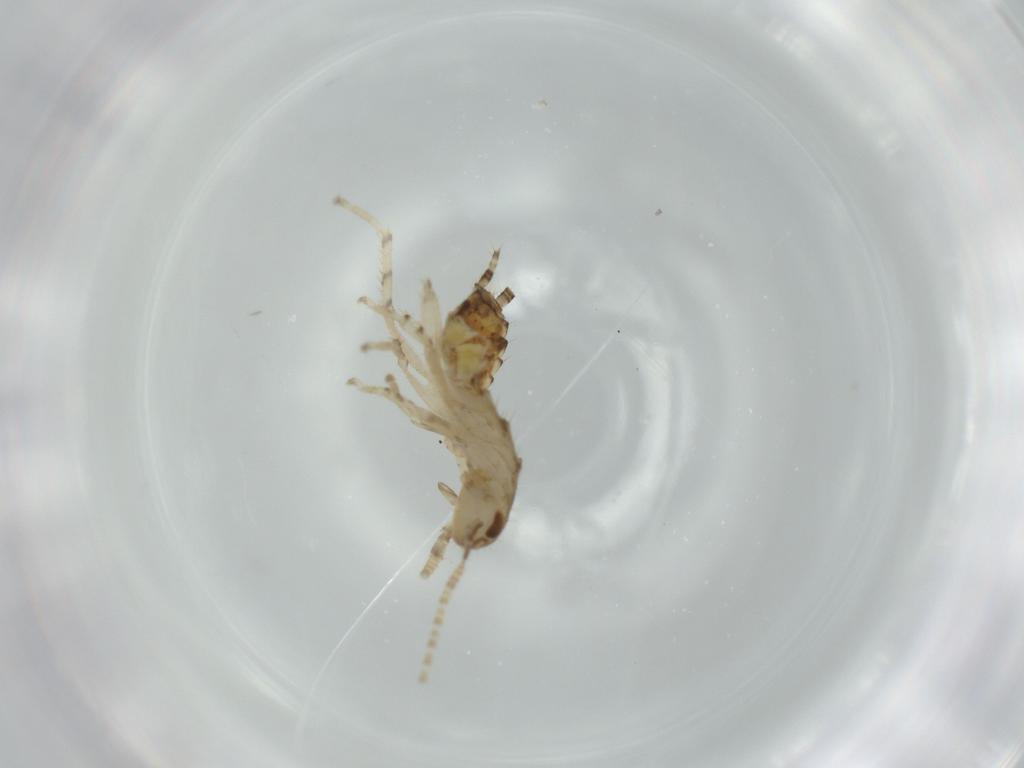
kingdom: Animalia
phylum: Arthropoda
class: Insecta
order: Blattodea
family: Ectobiidae
